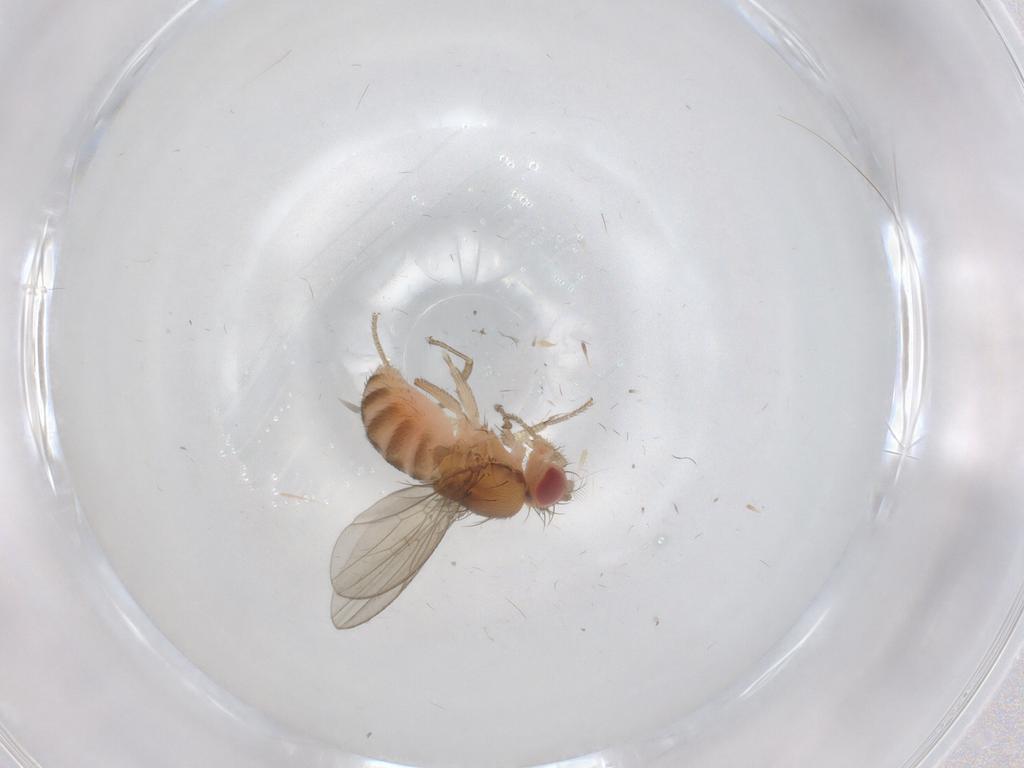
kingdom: Animalia
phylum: Arthropoda
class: Insecta
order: Diptera
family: Drosophilidae
